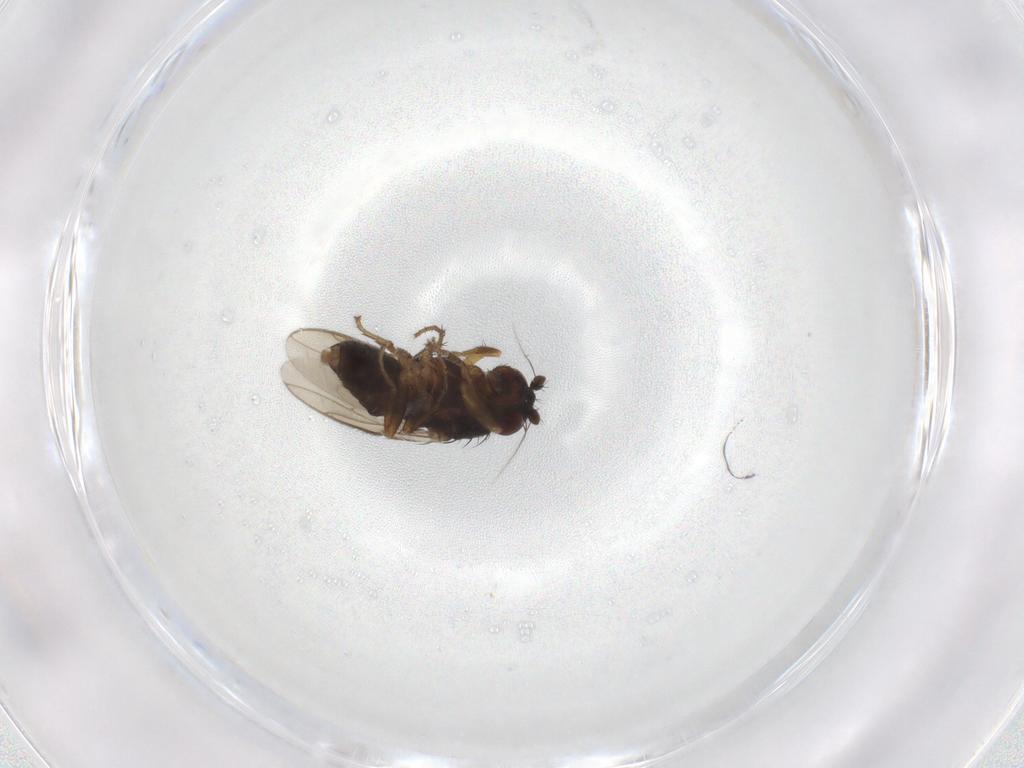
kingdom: Animalia
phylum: Arthropoda
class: Insecta
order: Diptera
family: Sphaeroceridae
